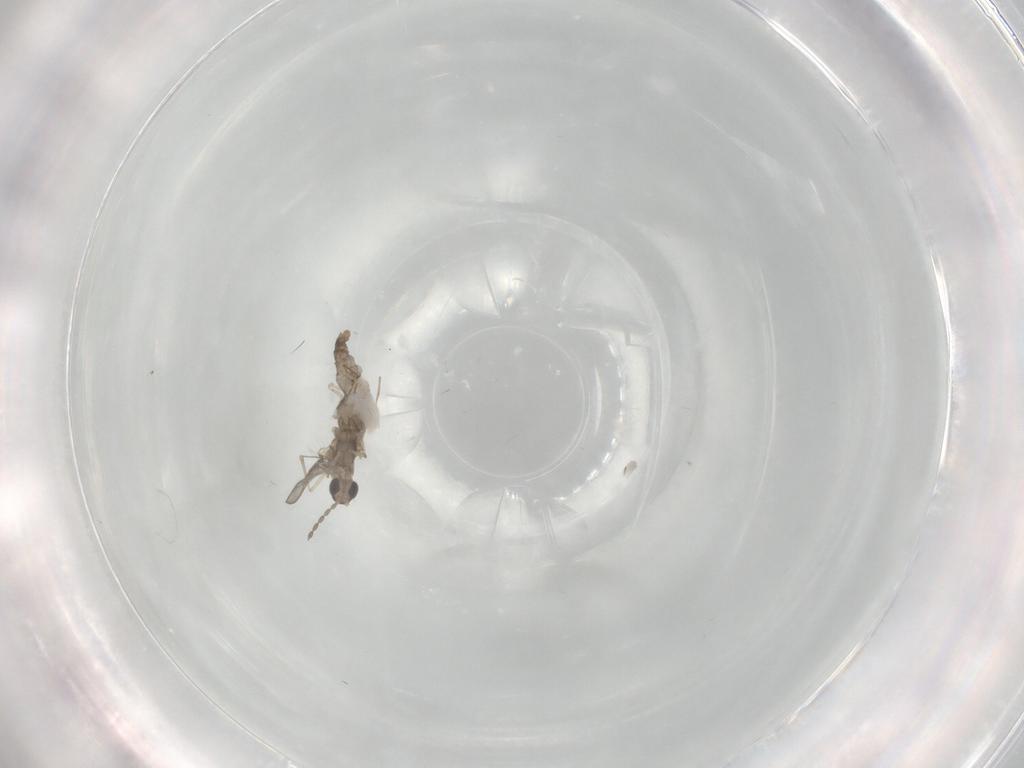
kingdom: Animalia
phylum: Arthropoda
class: Insecta
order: Diptera
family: Cecidomyiidae
